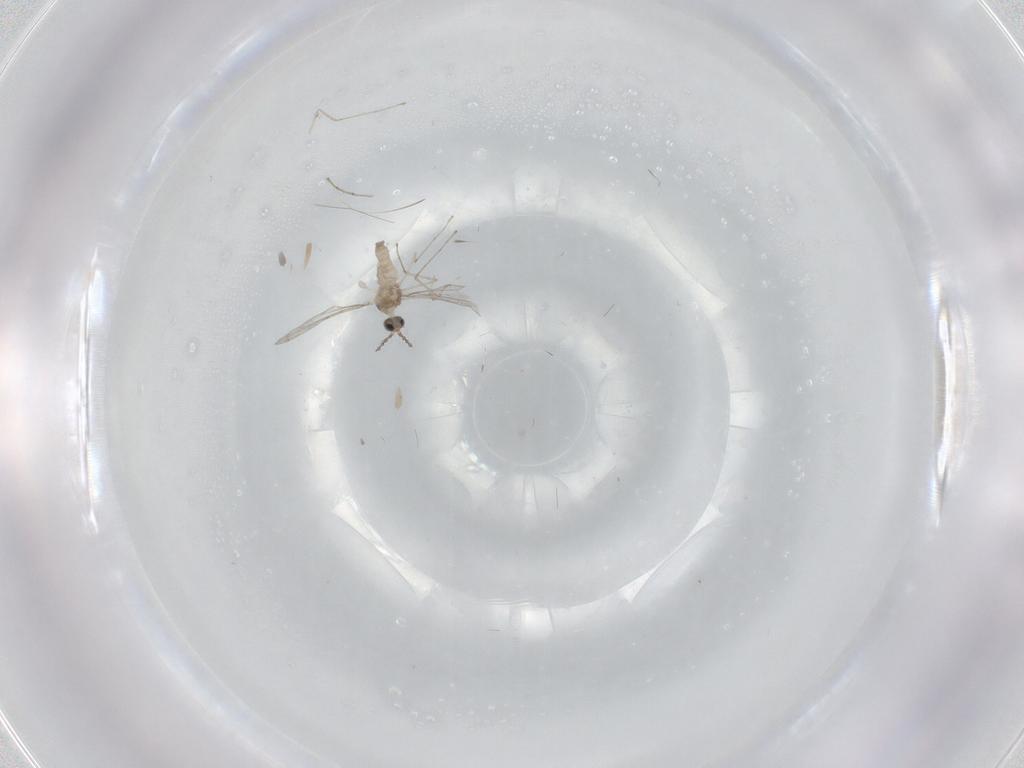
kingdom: Animalia
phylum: Arthropoda
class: Insecta
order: Diptera
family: Cecidomyiidae
